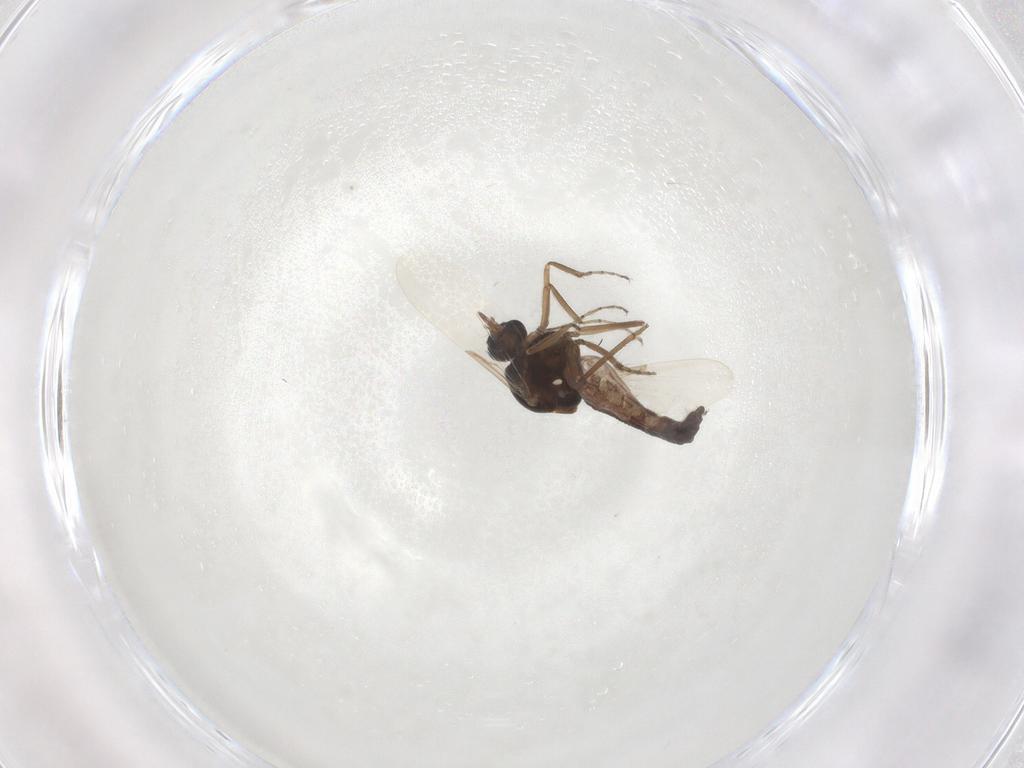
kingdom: Animalia
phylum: Arthropoda
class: Insecta
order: Diptera
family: Ceratopogonidae
